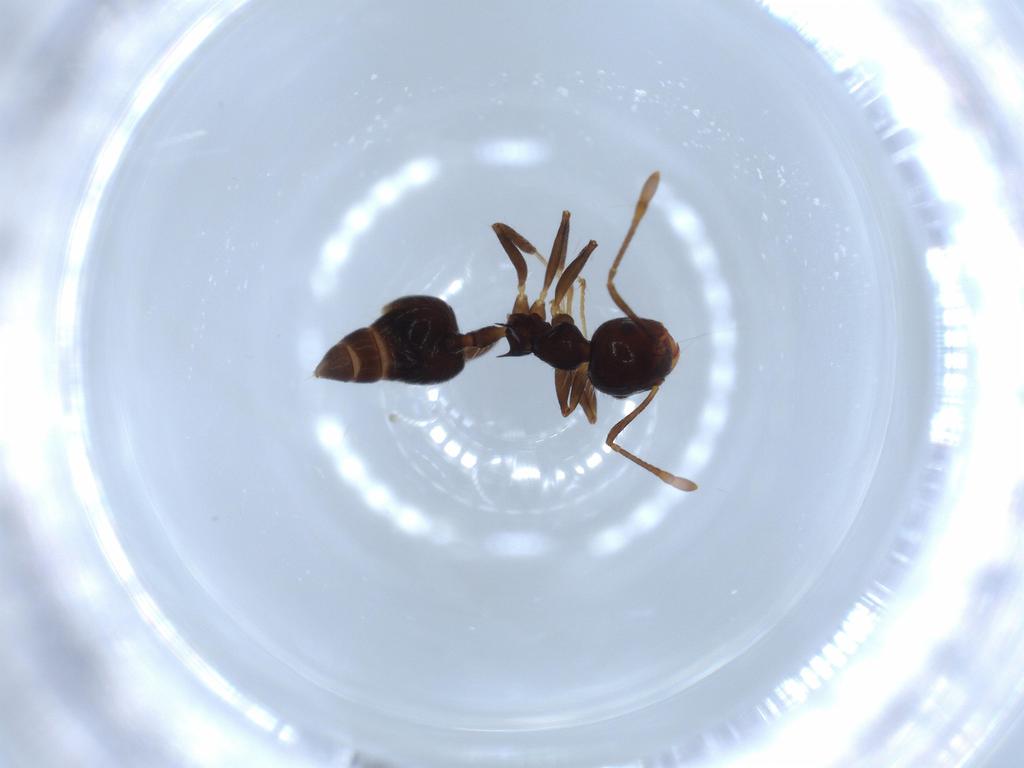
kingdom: Animalia
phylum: Arthropoda
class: Insecta
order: Hymenoptera
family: Formicidae
